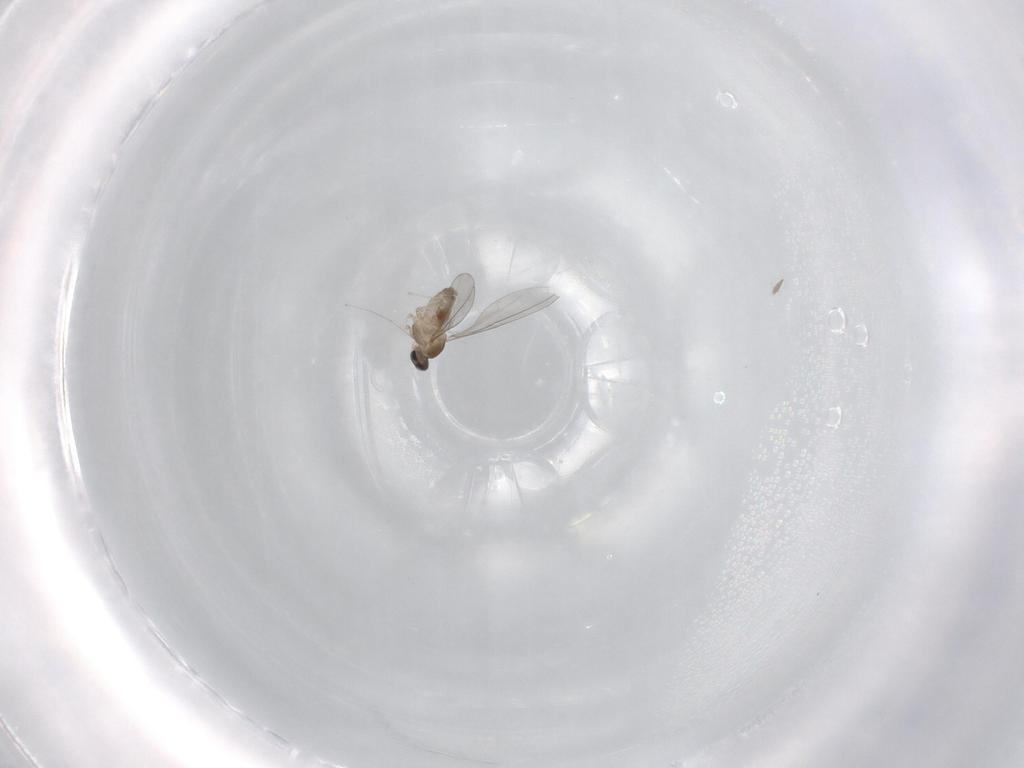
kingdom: Animalia
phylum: Arthropoda
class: Insecta
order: Diptera
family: Cecidomyiidae
